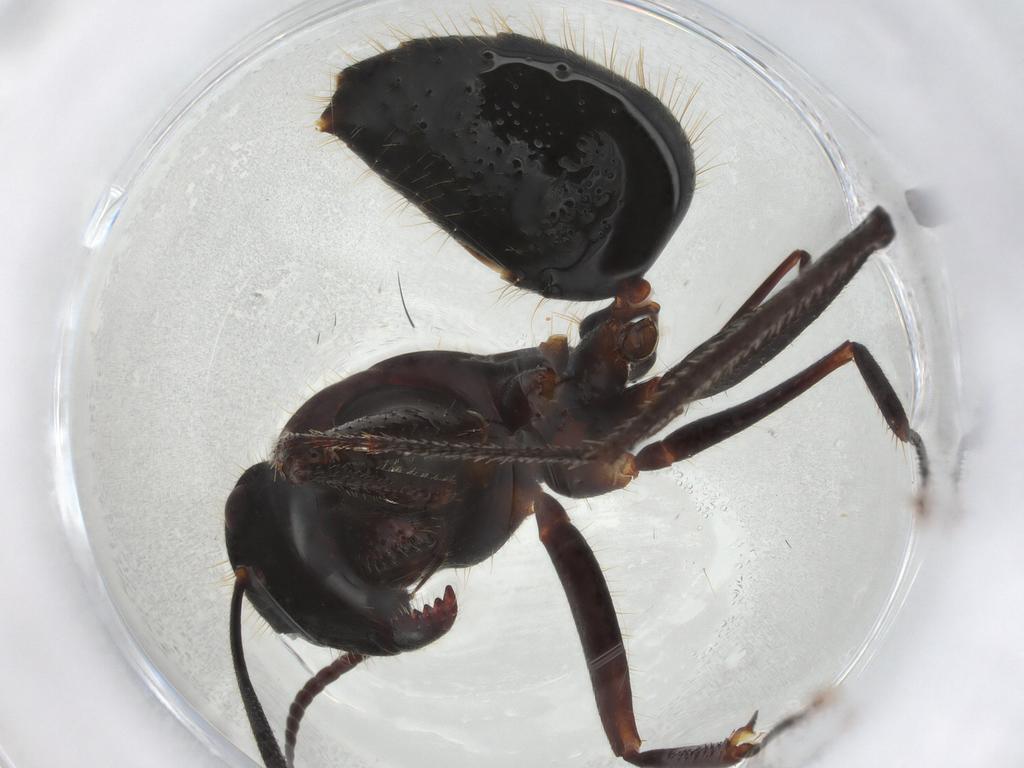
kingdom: Animalia
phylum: Arthropoda
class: Insecta
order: Hymenoptera
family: Formicidae
